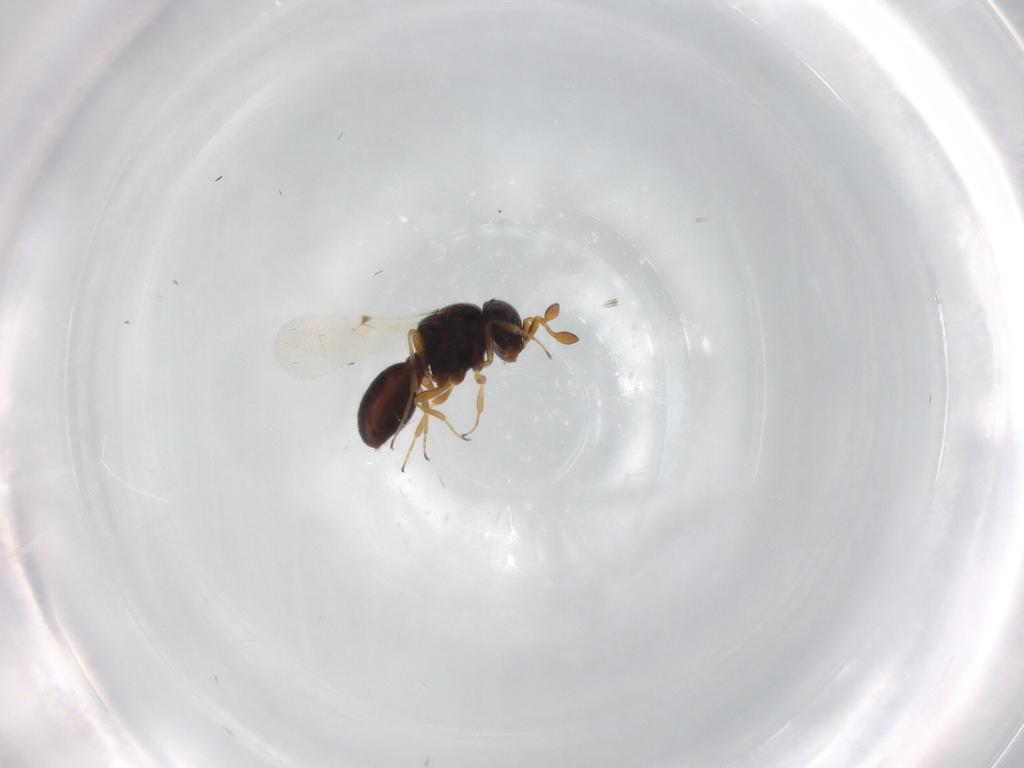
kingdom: Animalia
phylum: Arthropoda
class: Insecta
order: Hymenoptera
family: Scelionidae
